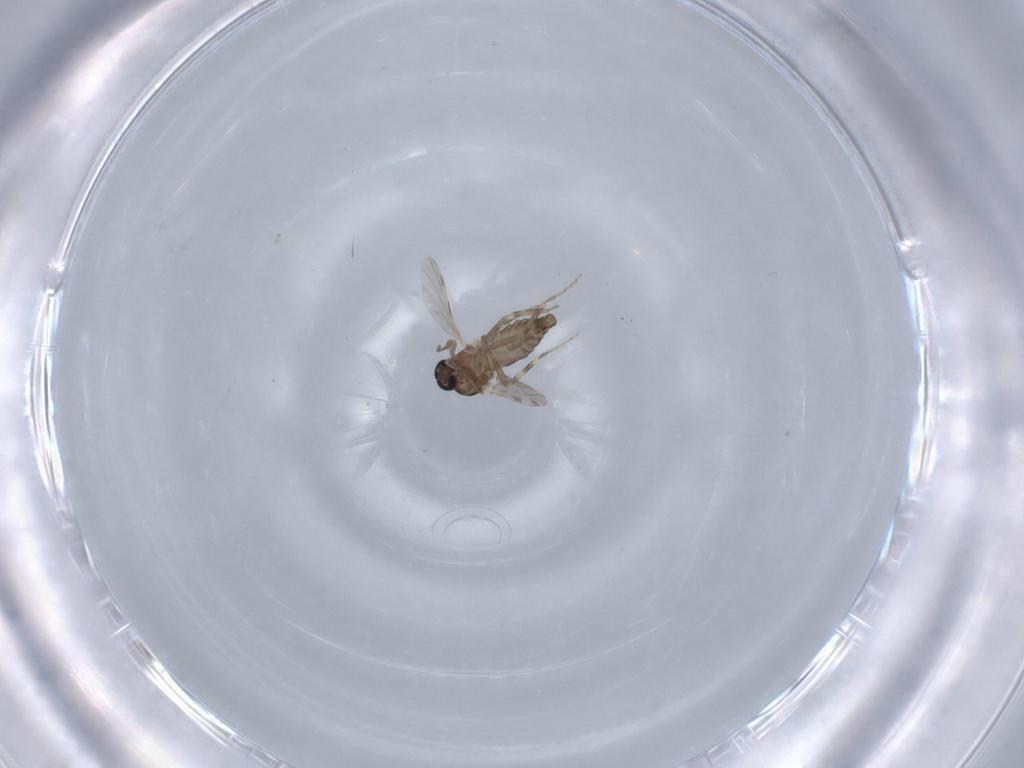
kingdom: Animalia
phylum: Arthropoda
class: Insecta
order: Diptera
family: Ceratopogonidae
